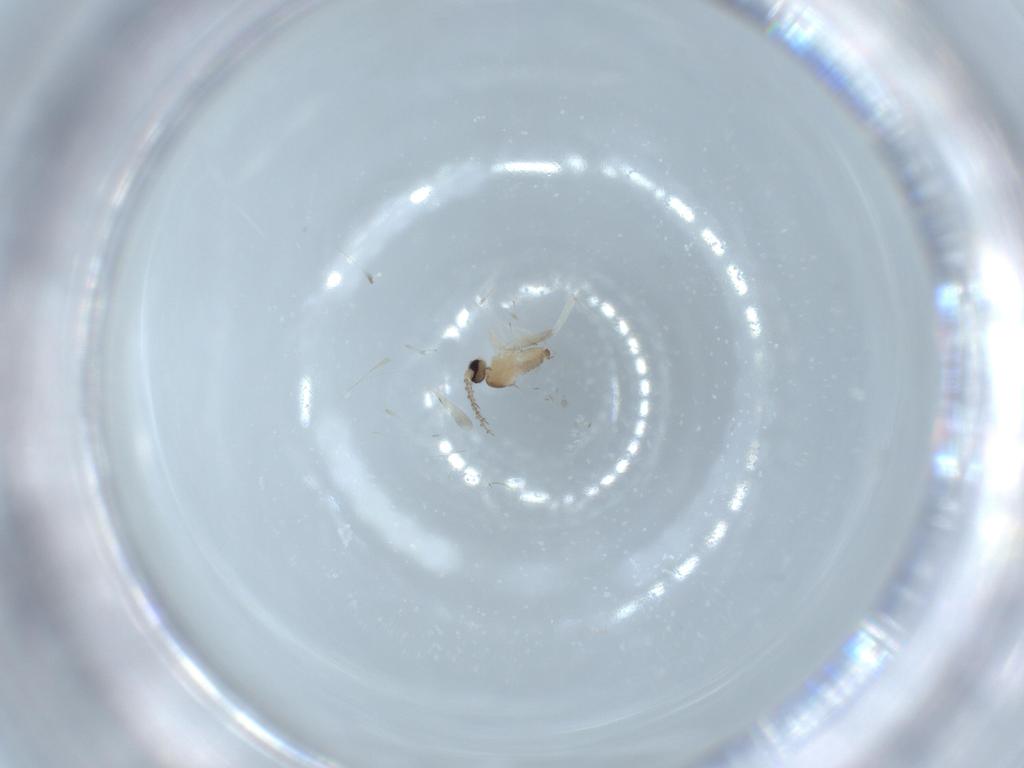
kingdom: Animalia
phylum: Arthropoda
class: Insecta
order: Diptera
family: Cecidomyiidae
